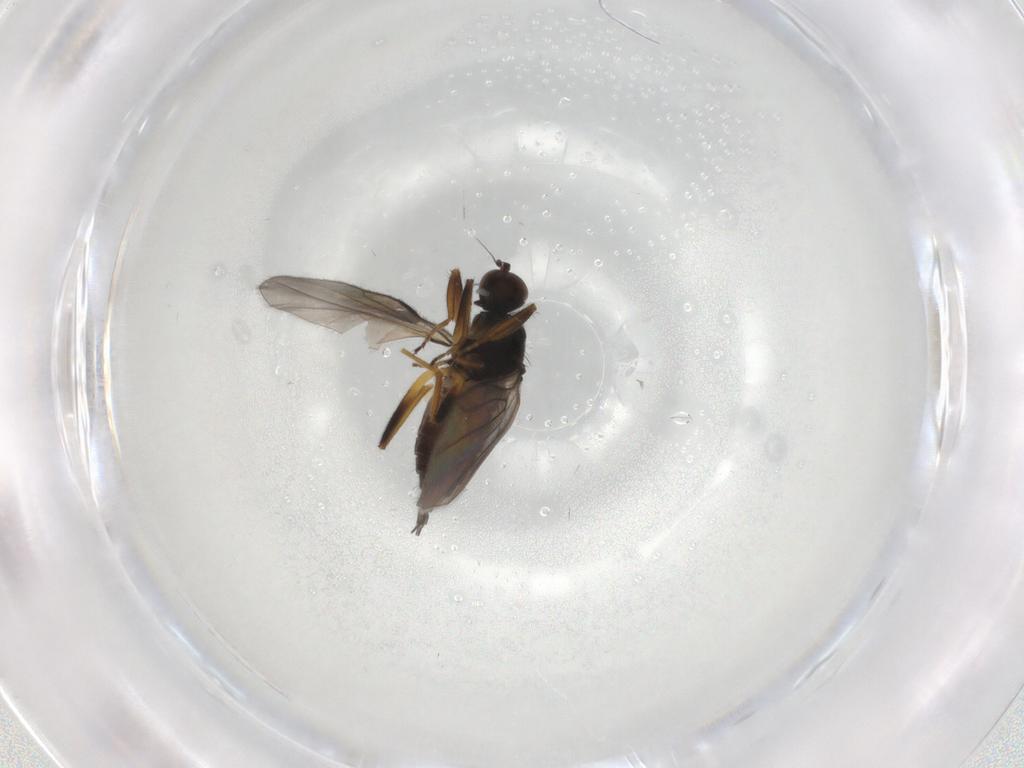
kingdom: Animalia
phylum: Arthropoda
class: Insecta
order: Diptera
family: Hybotidae
